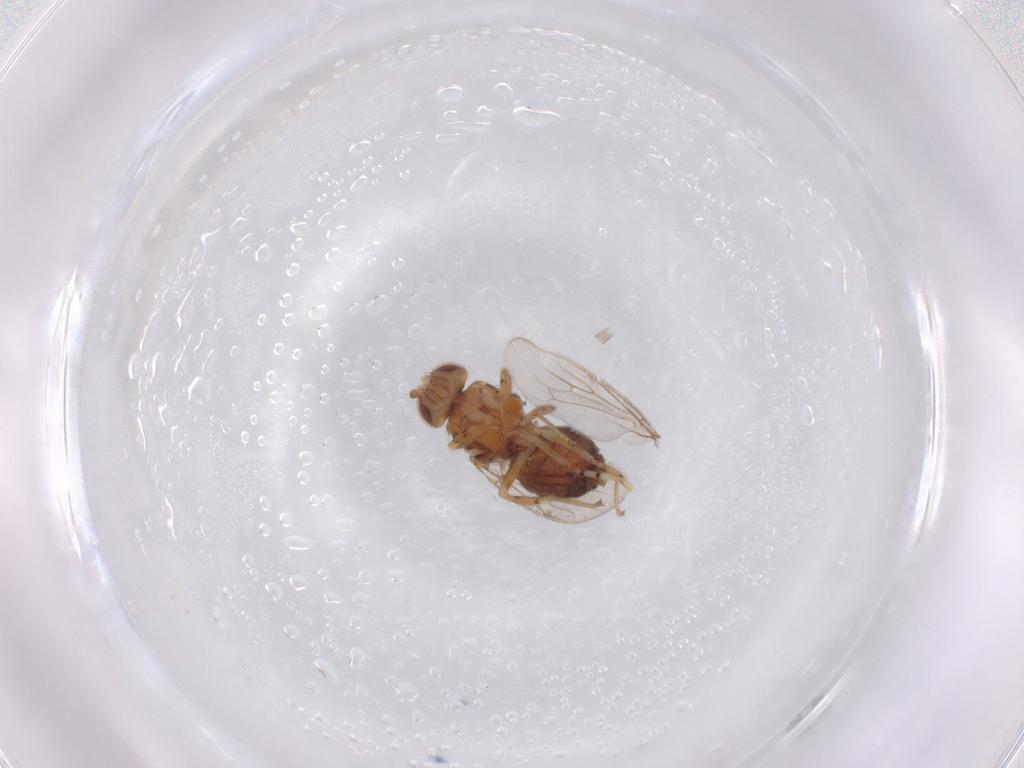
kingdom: Animalia
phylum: Arthropoda
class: Insecta
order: Diptera
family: Chloropidae
